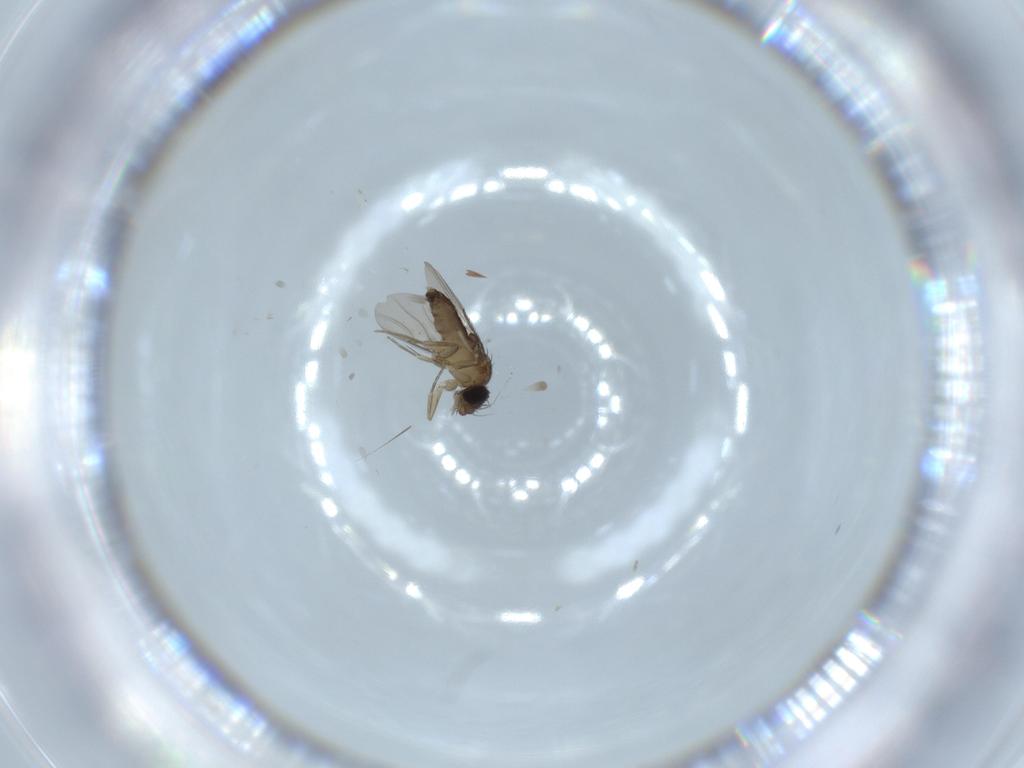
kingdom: Animalia
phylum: Arthropoda
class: Insecta
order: Diptera
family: Phoridae
